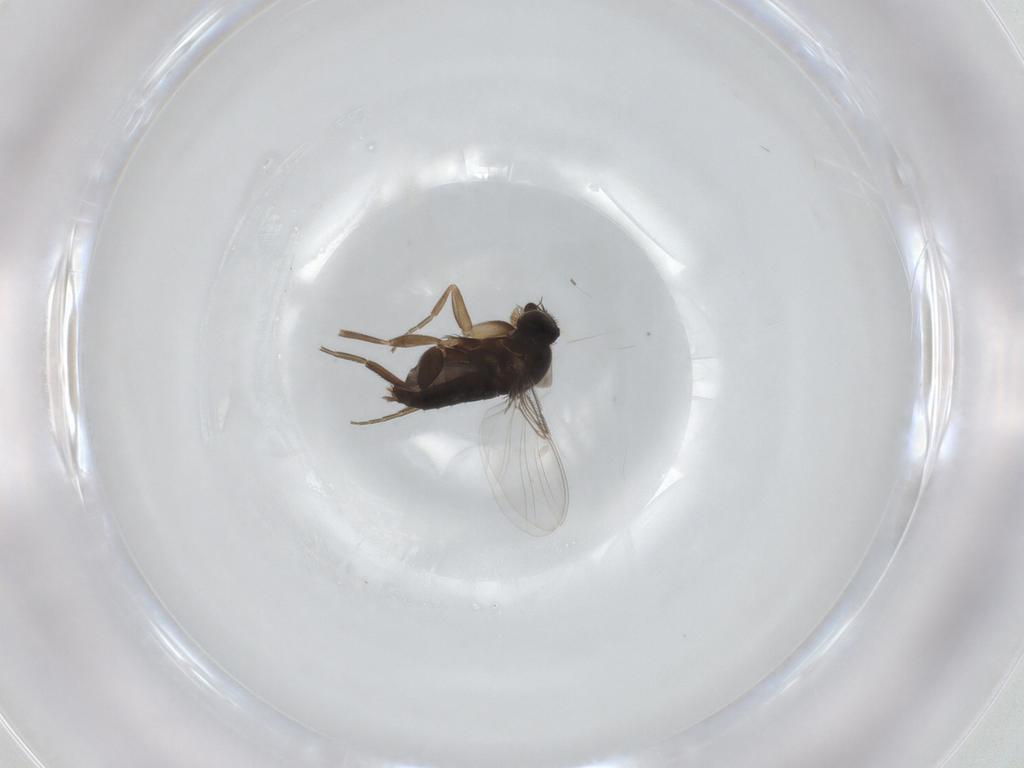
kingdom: Animalia
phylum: Arthropoda
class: Insecta
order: Diptera
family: Phoridae
